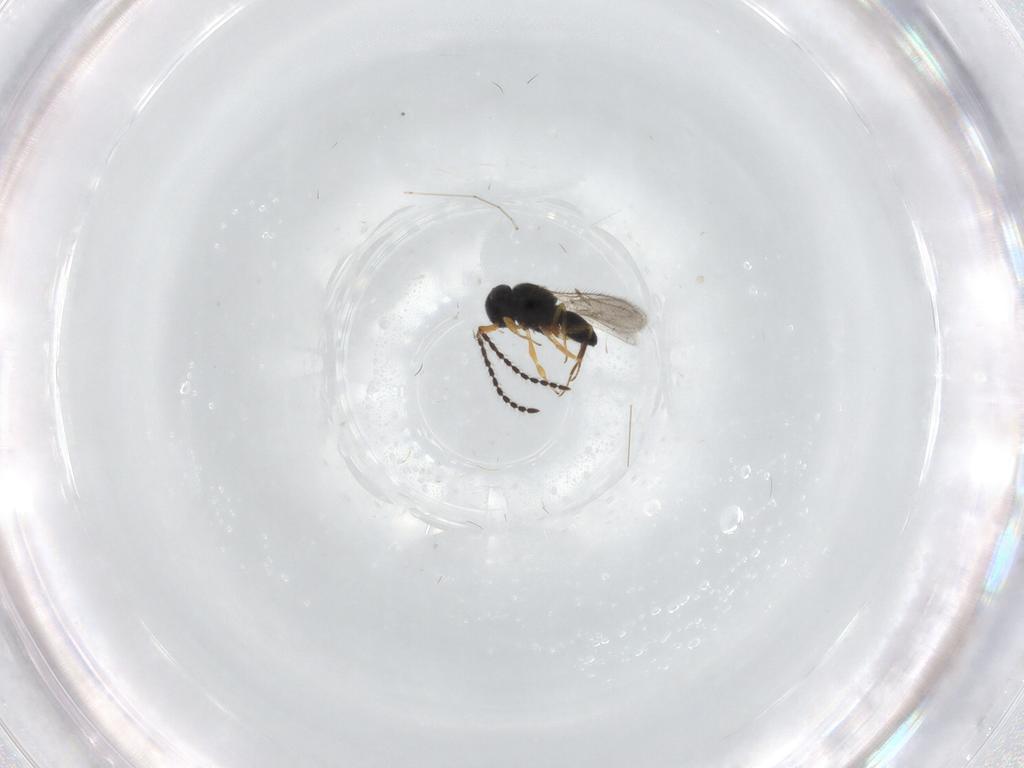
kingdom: Animalia
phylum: Arthropoda
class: Insecta
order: Hymenoptera
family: Scelionidae
